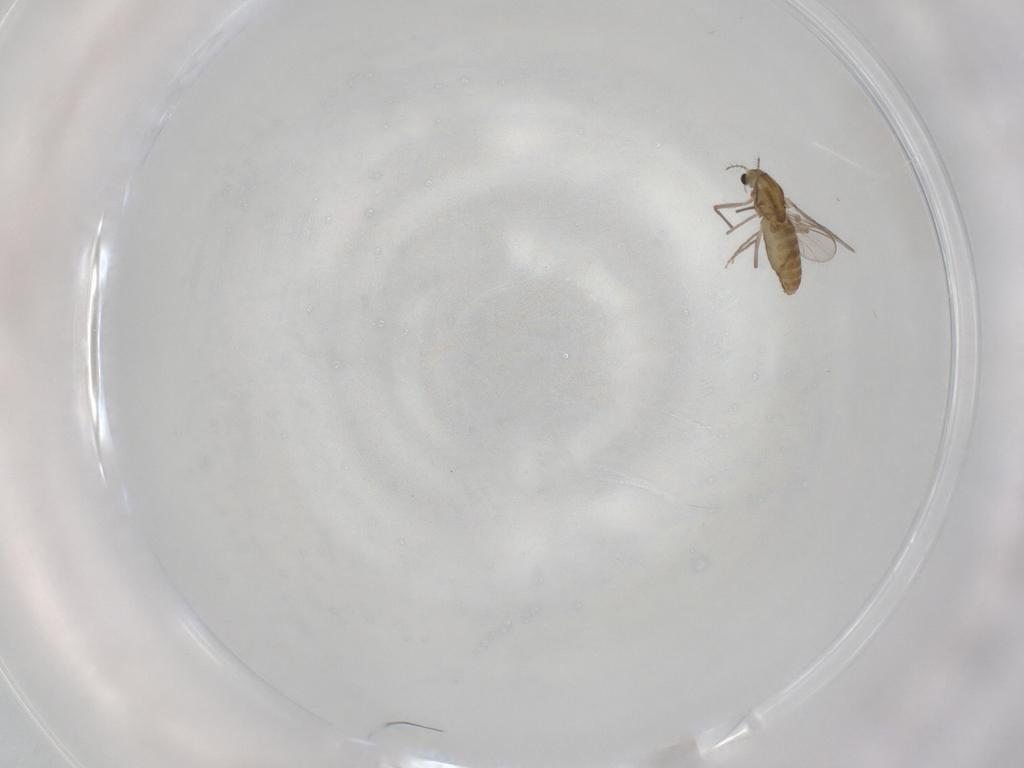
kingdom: Animalia
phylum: Arthropoda
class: Insecta
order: Diptera
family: Chironomidae
